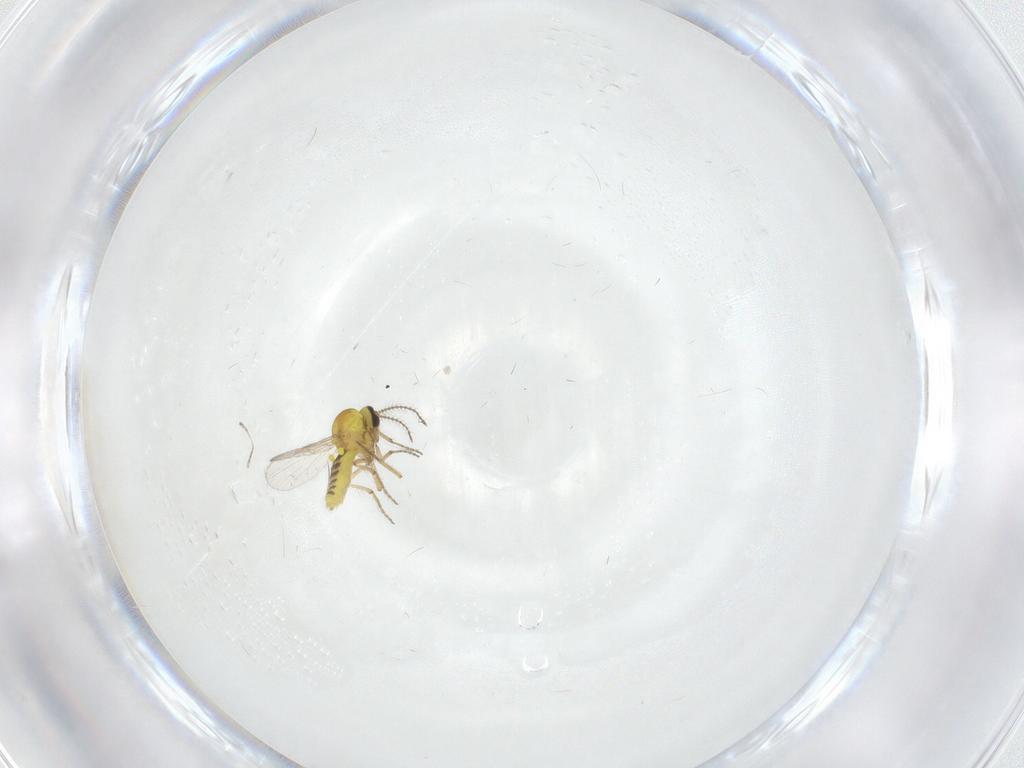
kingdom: Animalia
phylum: Arthropoda
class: Insecta
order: Diptera
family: Ceratopogonidae
